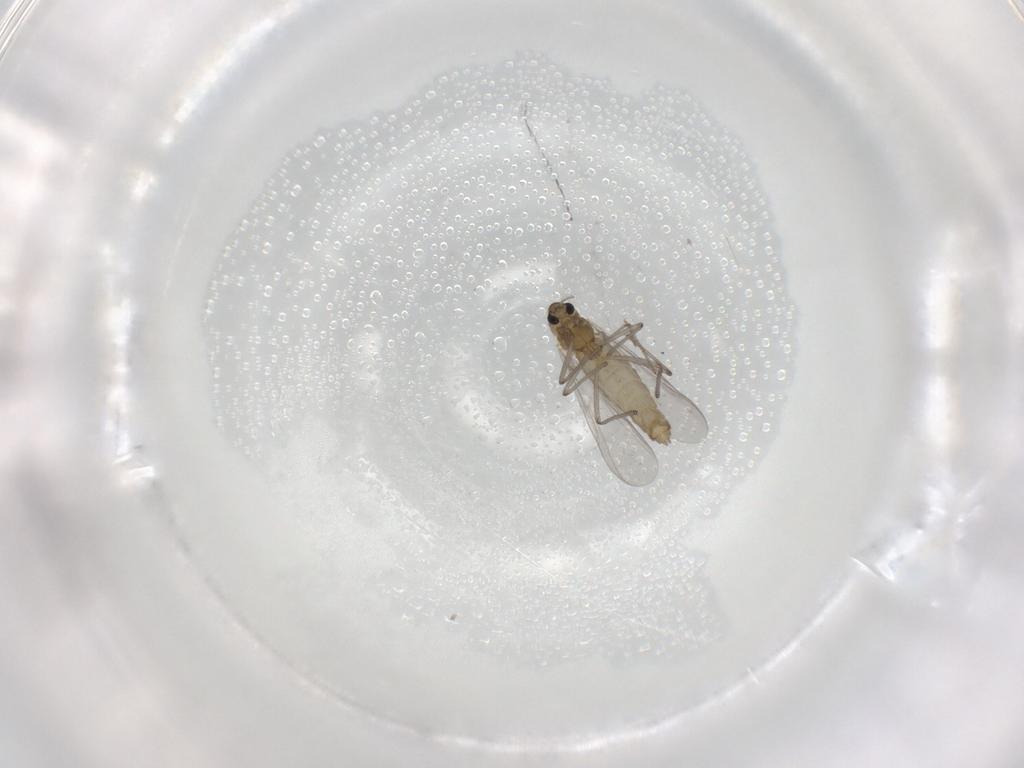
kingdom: Animalia
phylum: Arthropoda
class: Insecta
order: Diptera
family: Chironomidae
